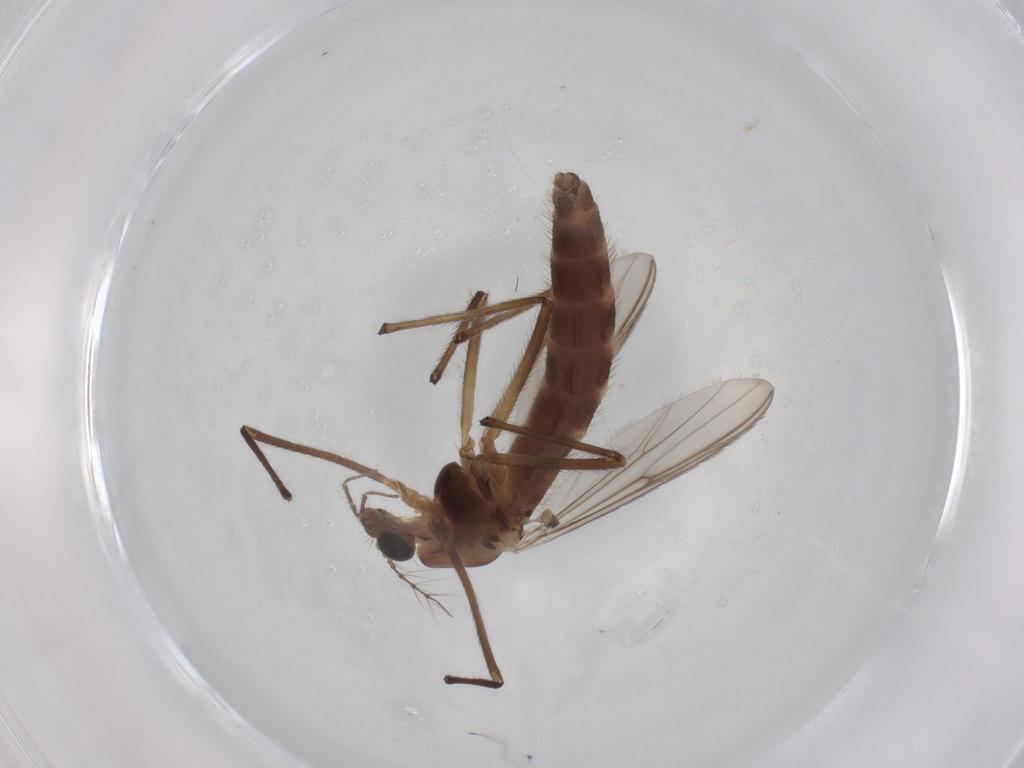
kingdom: Animalia
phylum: Arthropoda
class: Insecta
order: Diptera
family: Chironomidae
